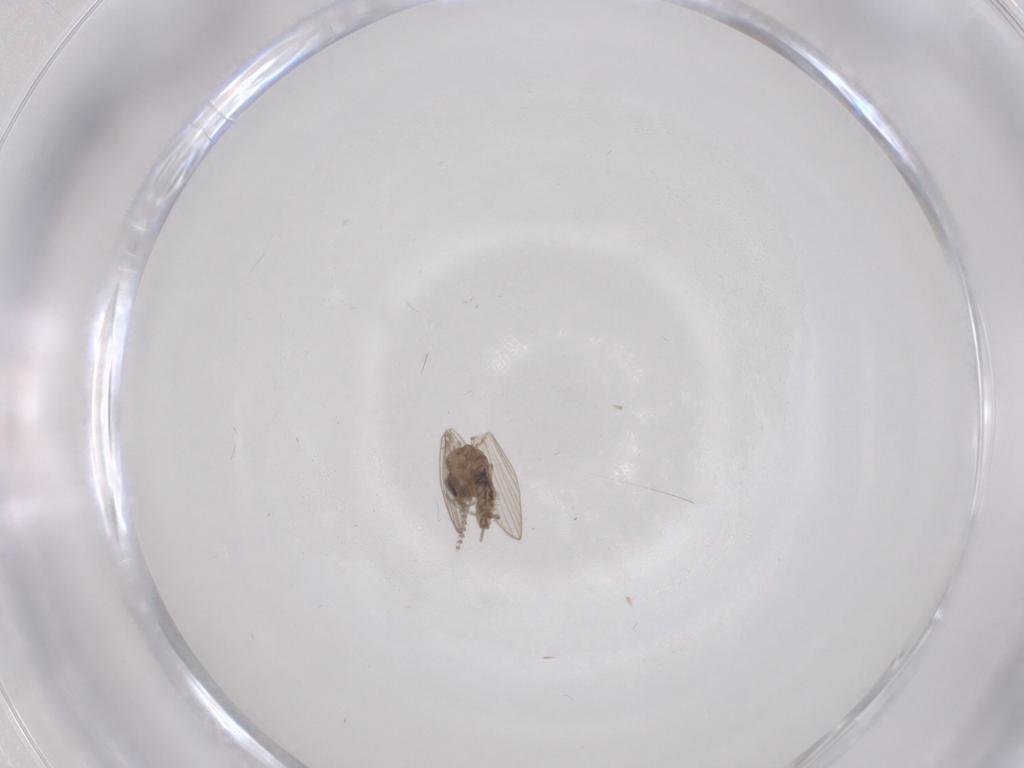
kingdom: Animalia
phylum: Arthropoda
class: Insecta
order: Diptera
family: Psychodidae
